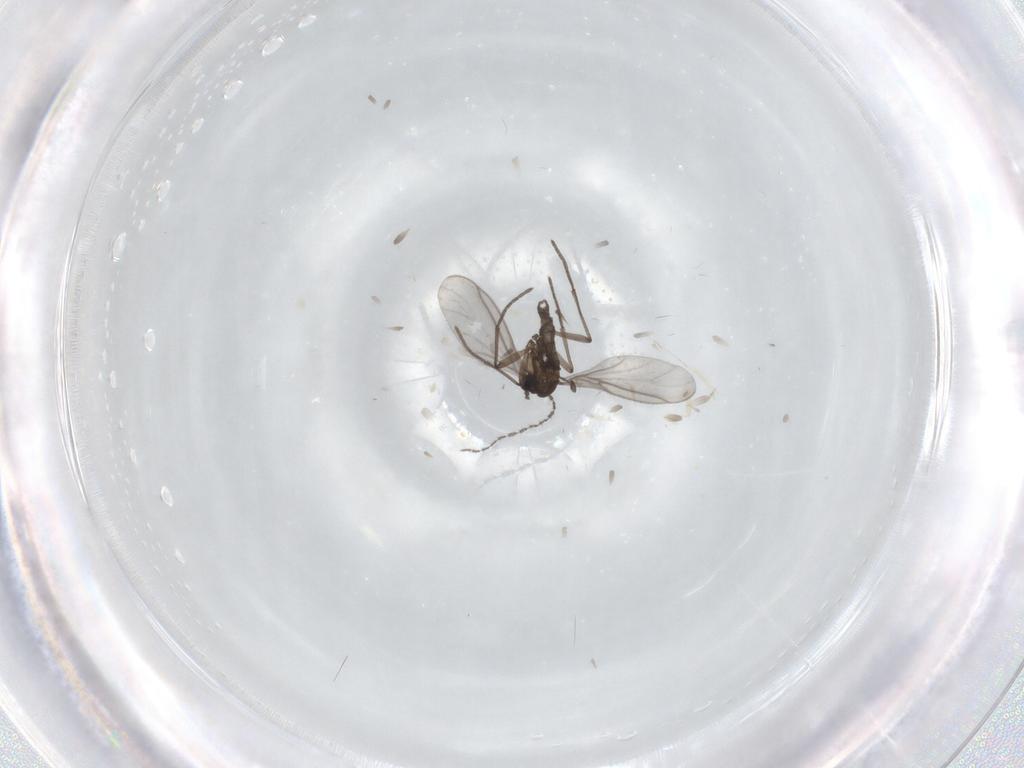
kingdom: Animalia
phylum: Arthropoda
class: Insecta
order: Diptera
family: Sciaridae
